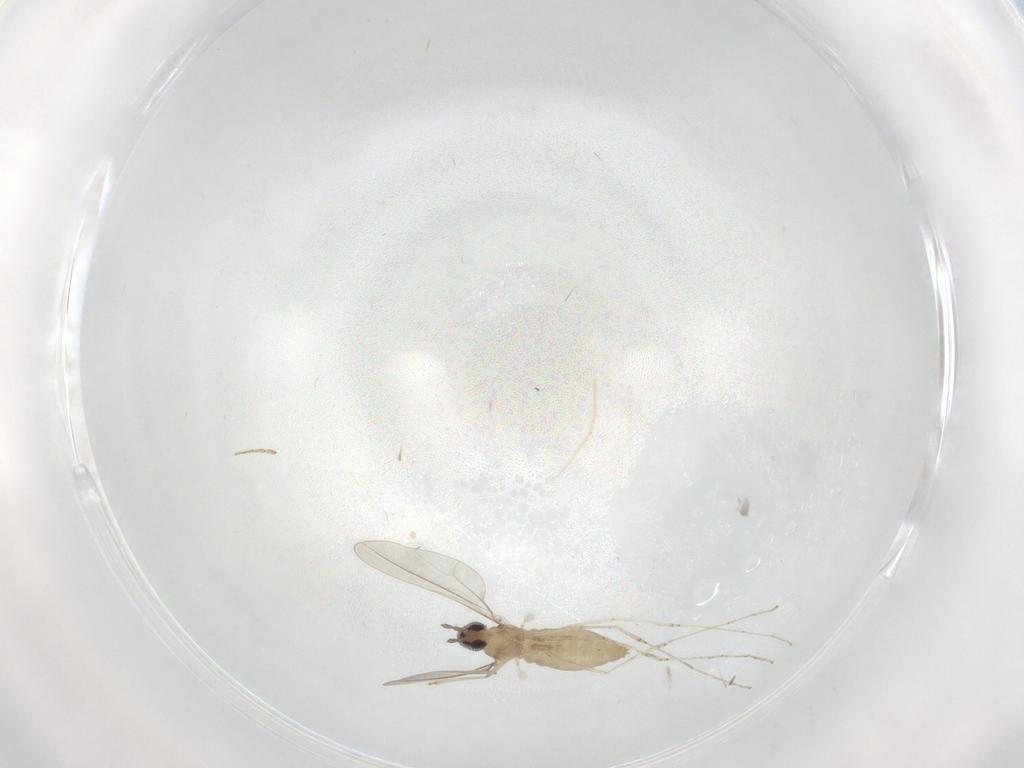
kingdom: Animalia
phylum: Arthropoda
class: Insecta
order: Diptera
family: Cecidomyiidae
